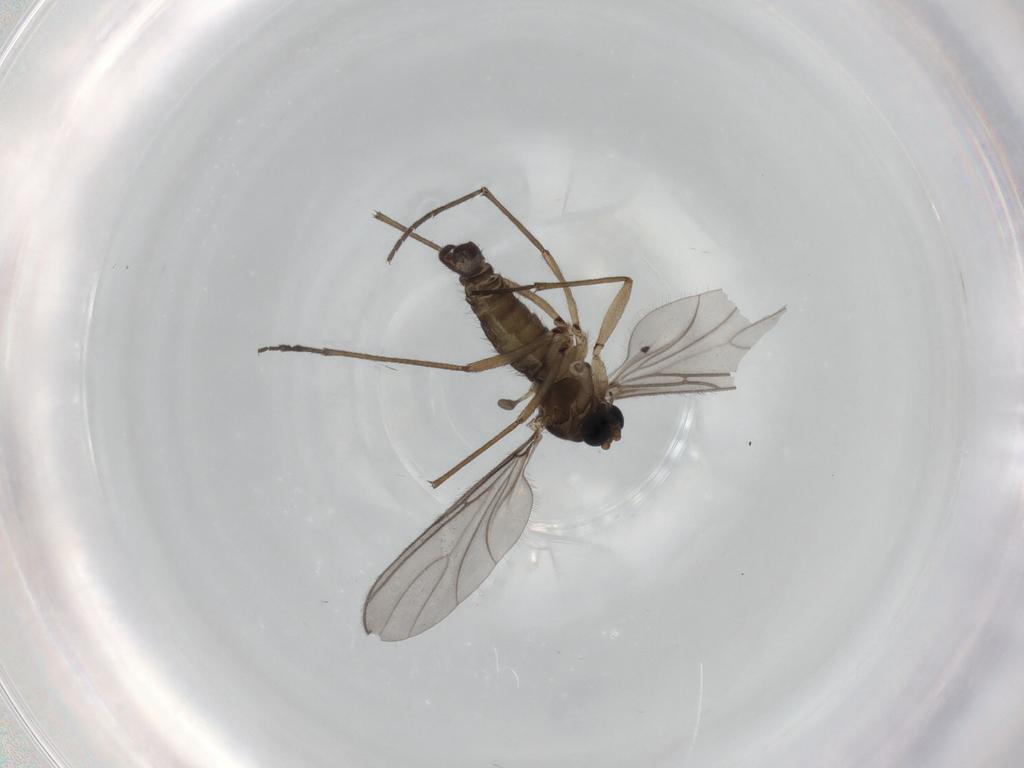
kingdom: Animalia
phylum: Arthropoda
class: Insecta
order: Diptera
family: Sciaridae
